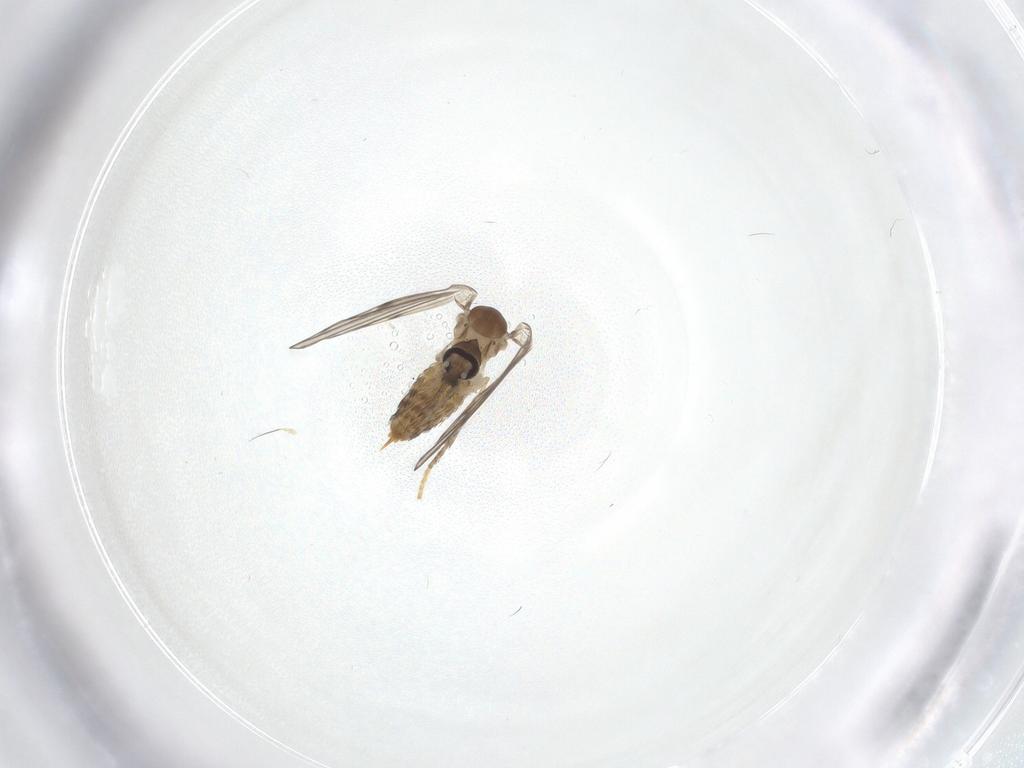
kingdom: Animalia
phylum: Arthropoda
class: Insecta
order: Diptera
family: Hybotidae
